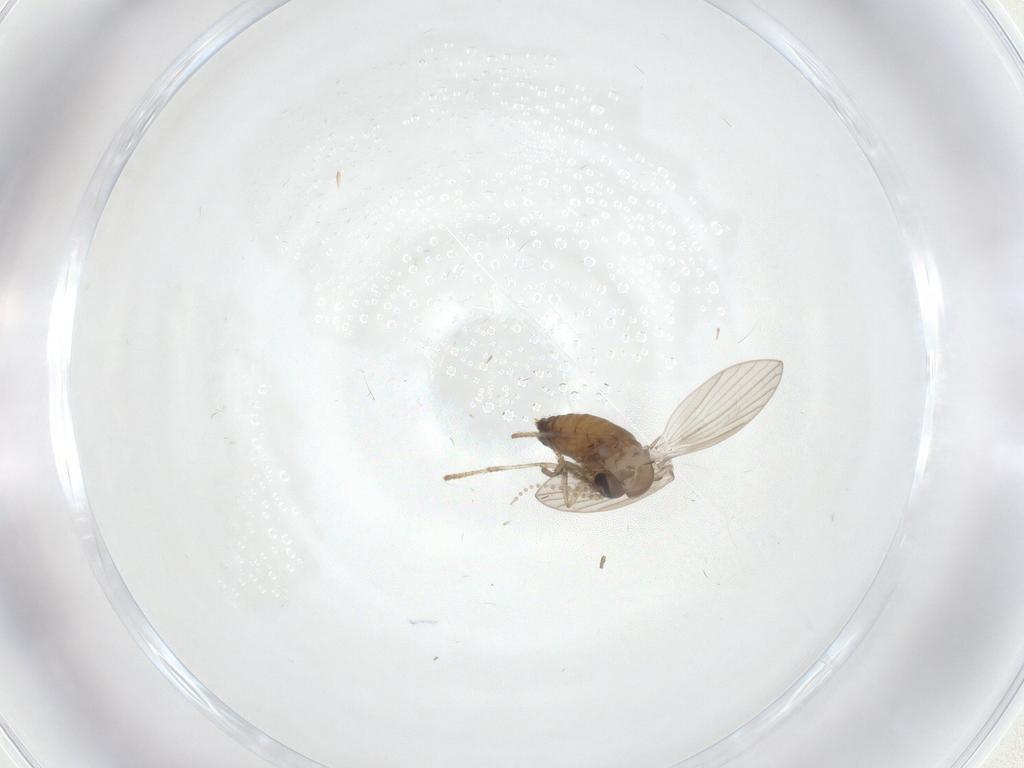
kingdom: Animalia
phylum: Arthropoda
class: Insecta
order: Diptera
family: Psychodidae
